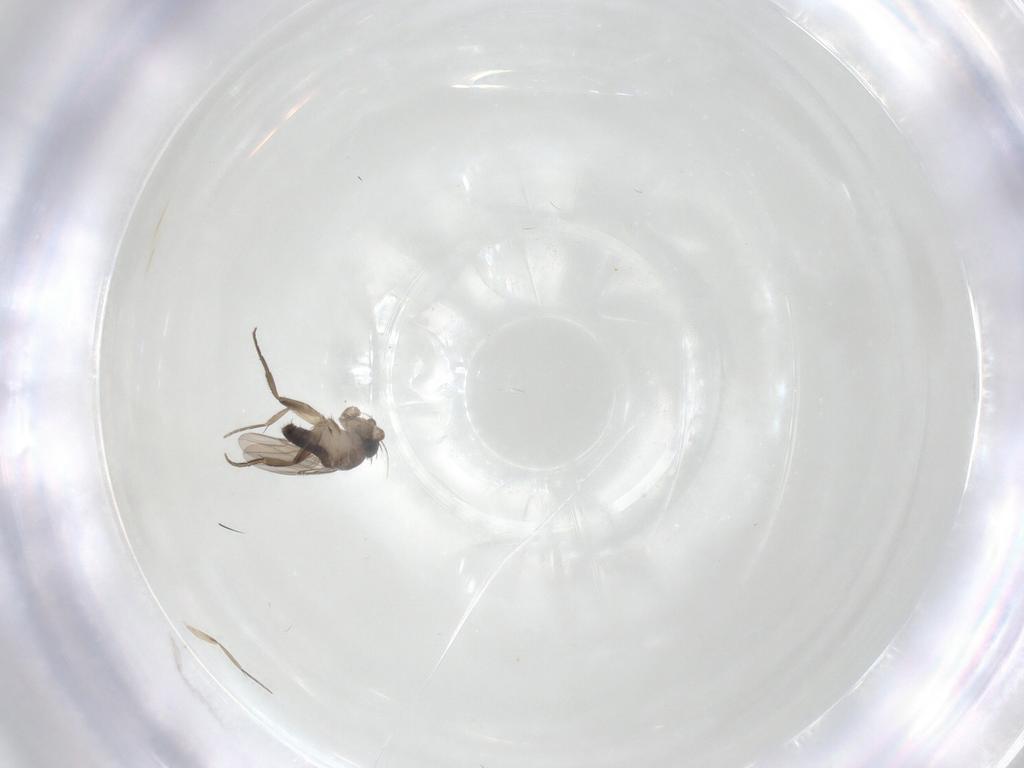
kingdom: Animalia
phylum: Arthropoda
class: Insecta
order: Diptera
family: Phoridae
